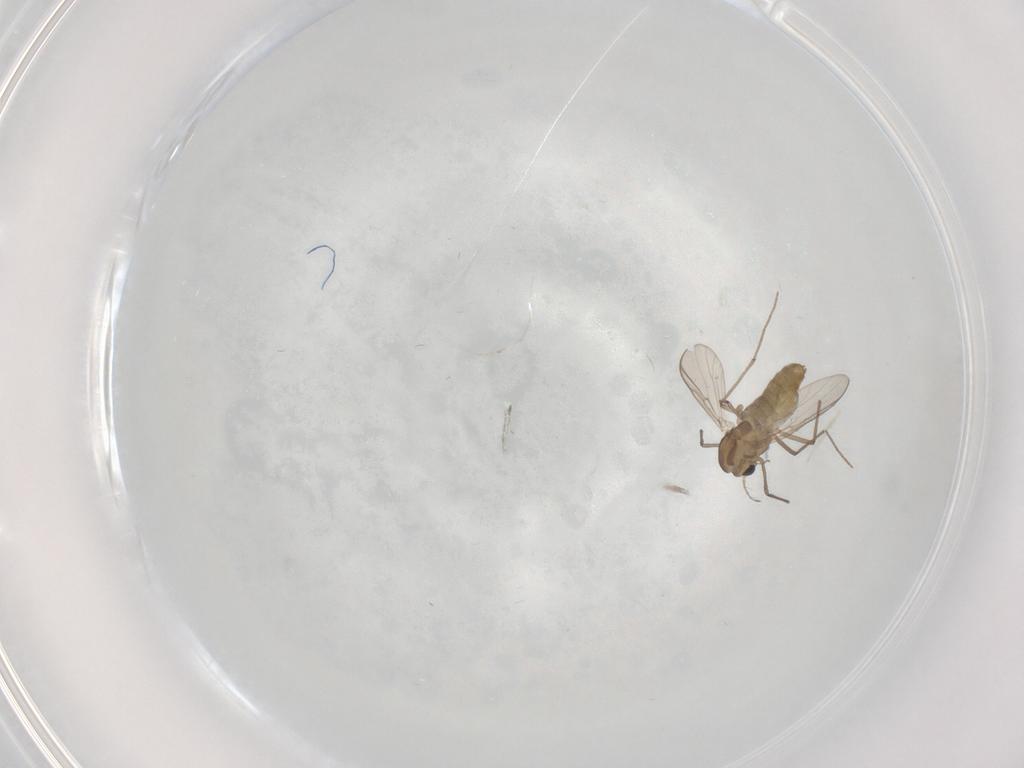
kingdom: Animalia
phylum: Arthropoda
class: Insecta
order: Diptera
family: Chironomidae
